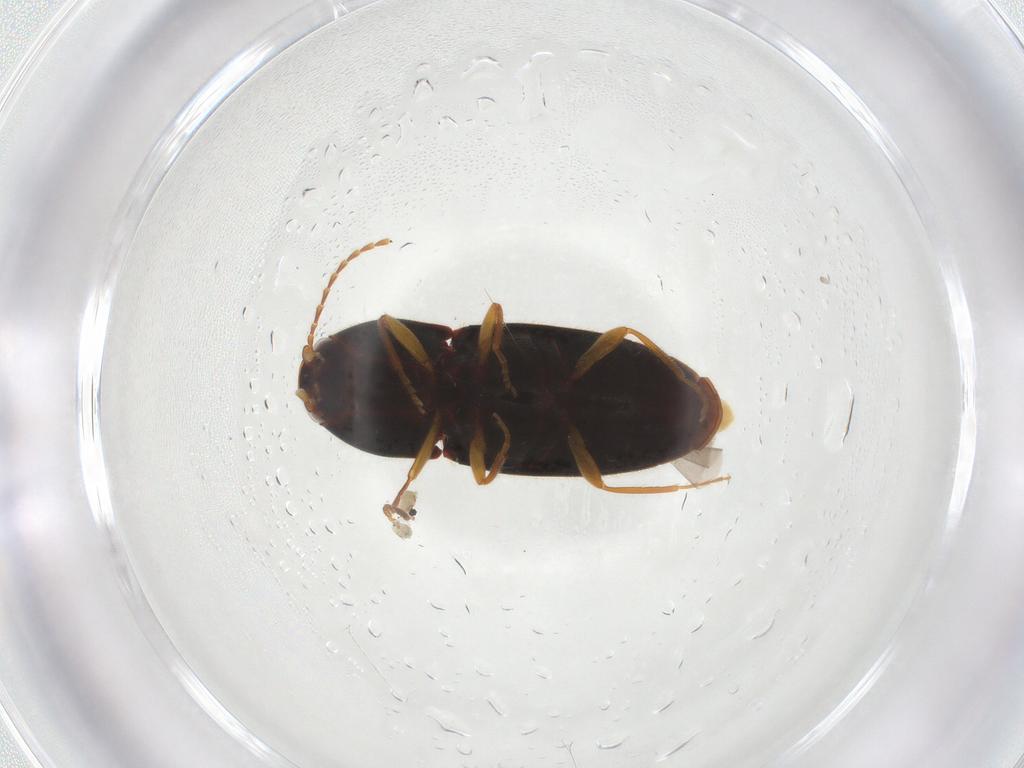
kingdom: Animalia
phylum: Arthropoda
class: Insecta
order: Coleoptera
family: Elateridae
